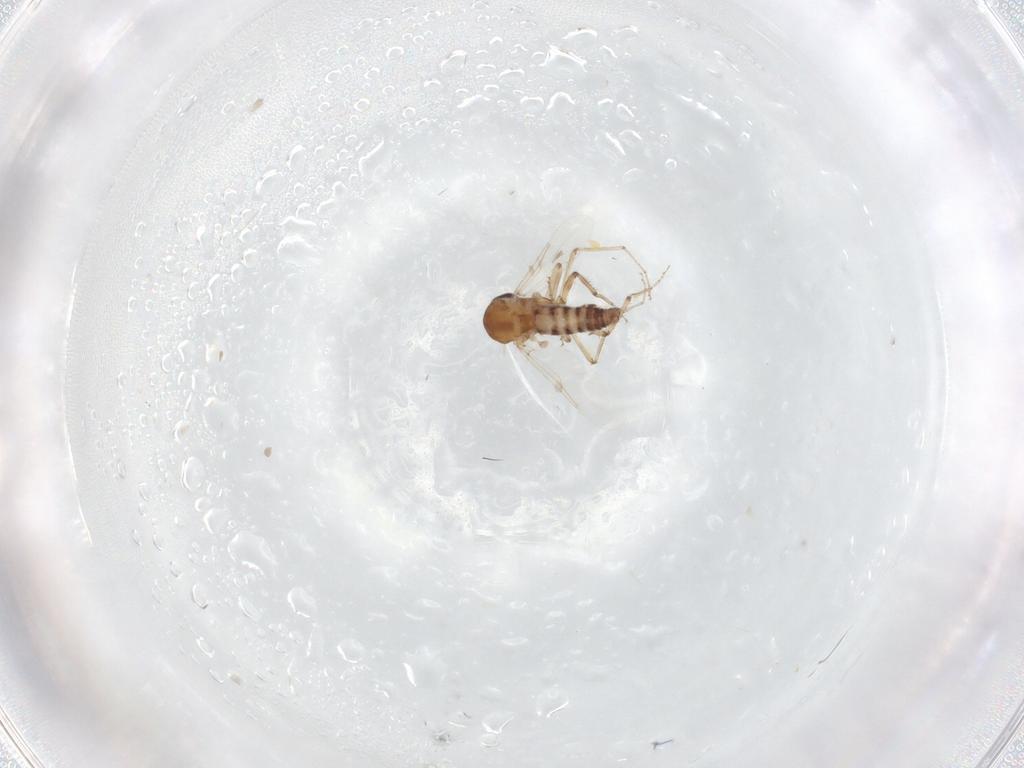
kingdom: Animalia
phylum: Arthropoda
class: Insecta
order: Diptera
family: Ceratopogonidae
